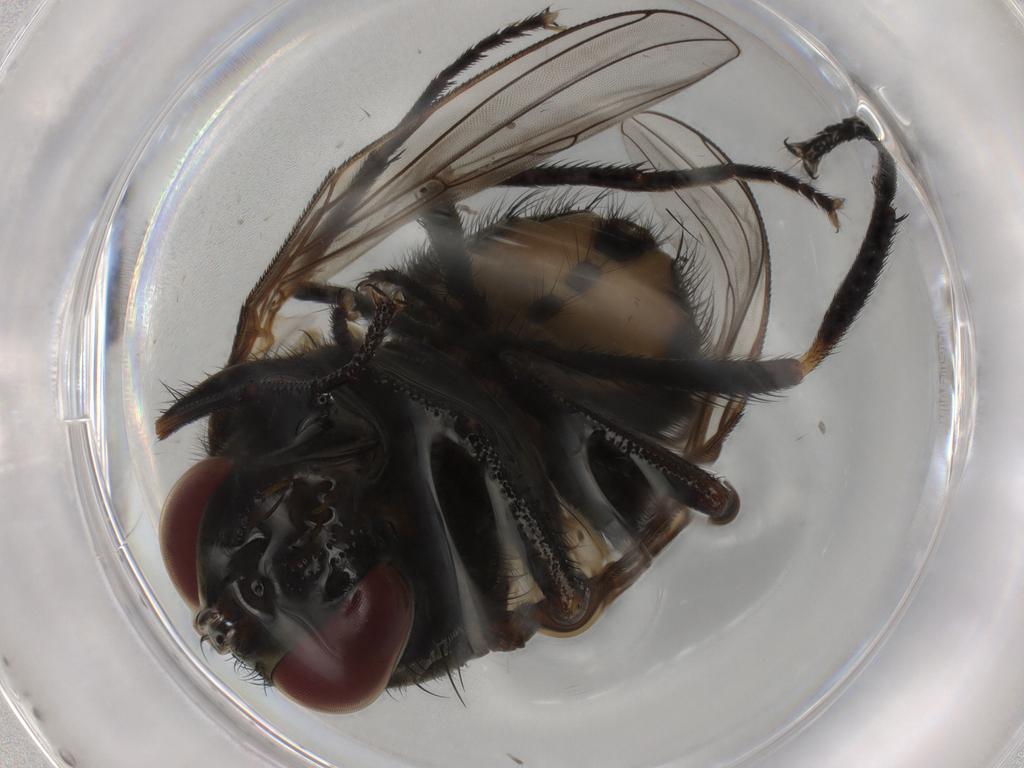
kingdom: Animalia
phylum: Arthropoda
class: Insecta
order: Diptera
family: Muscidae
